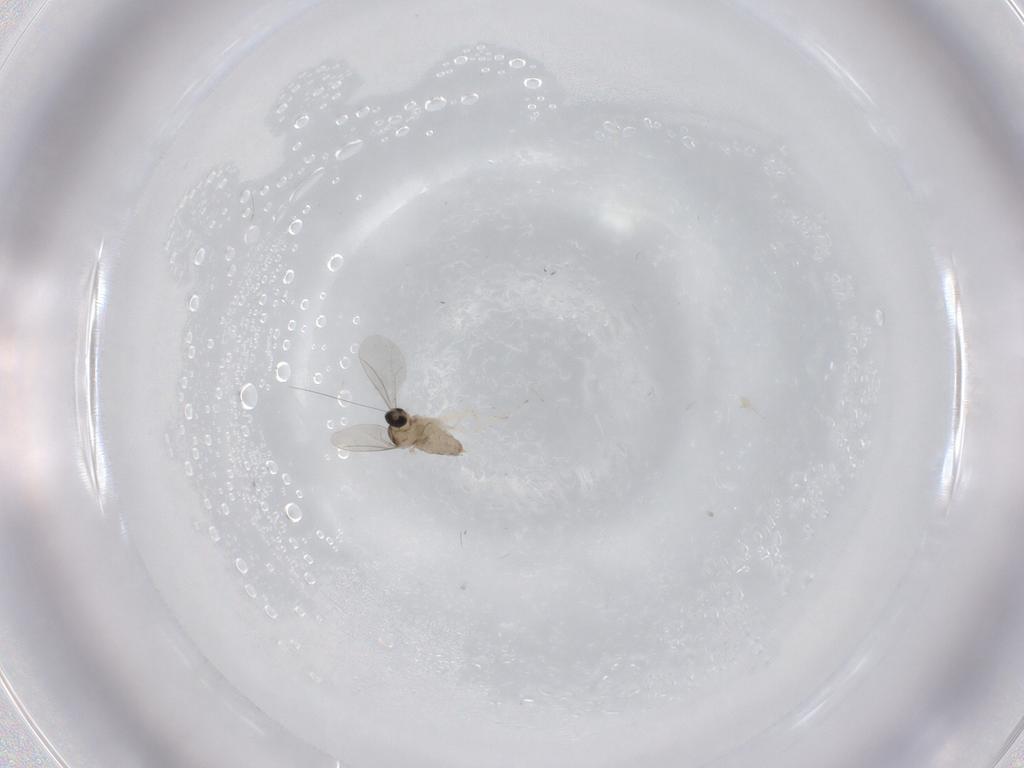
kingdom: Animalia
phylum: Arthropoda
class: Insecta
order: Diptera
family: Cecidomyiidae
